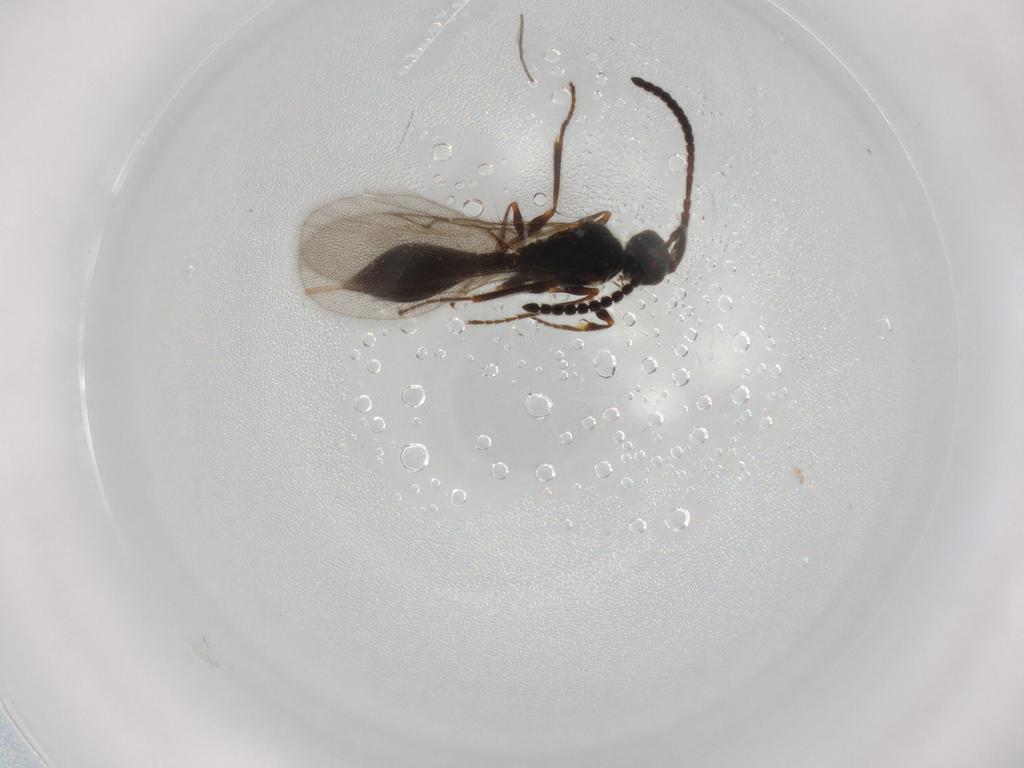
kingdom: Animalia
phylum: Arthropoda
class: Insecta
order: Hymenoptera
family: Diapriidae
